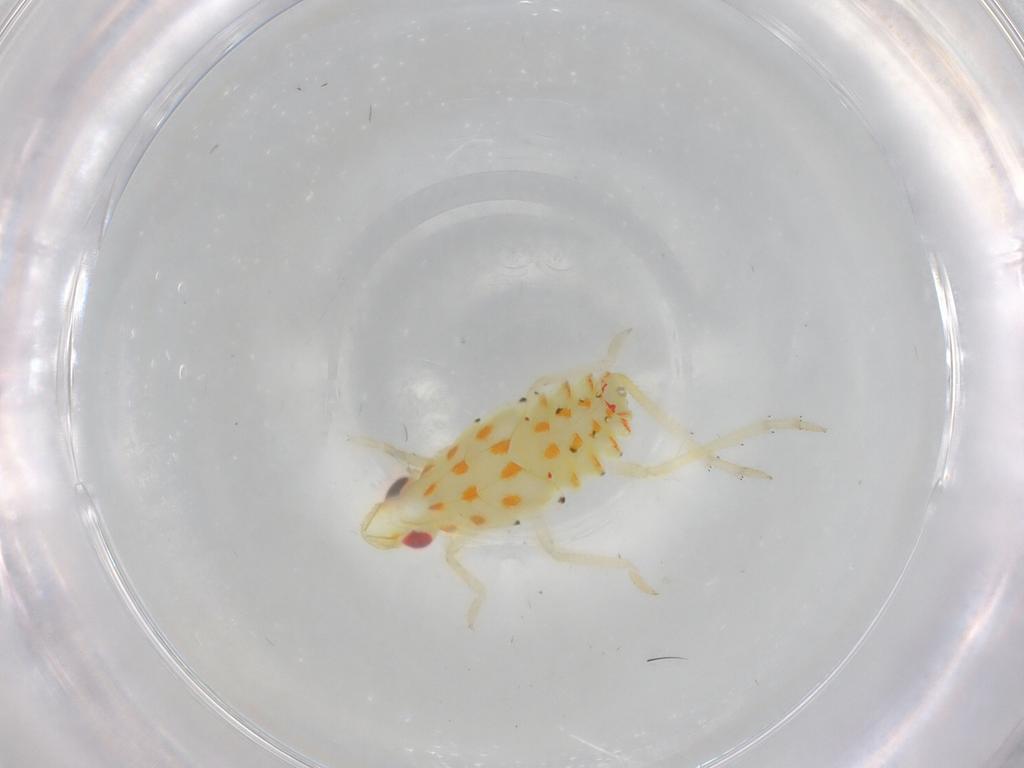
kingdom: Animalia
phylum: Arthropoda
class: Insecta
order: Hemiptera
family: Tropiduchidae
